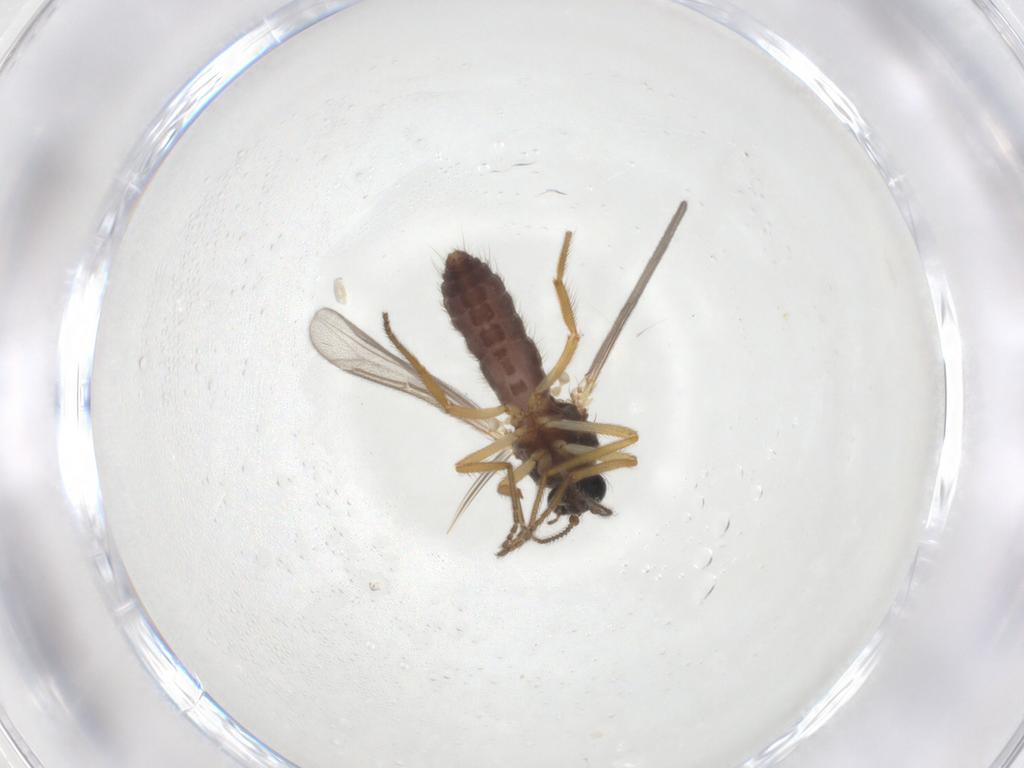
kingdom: Animalia
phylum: Arthropoda
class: Insecta
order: Diptera
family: Ceratopogonidae
